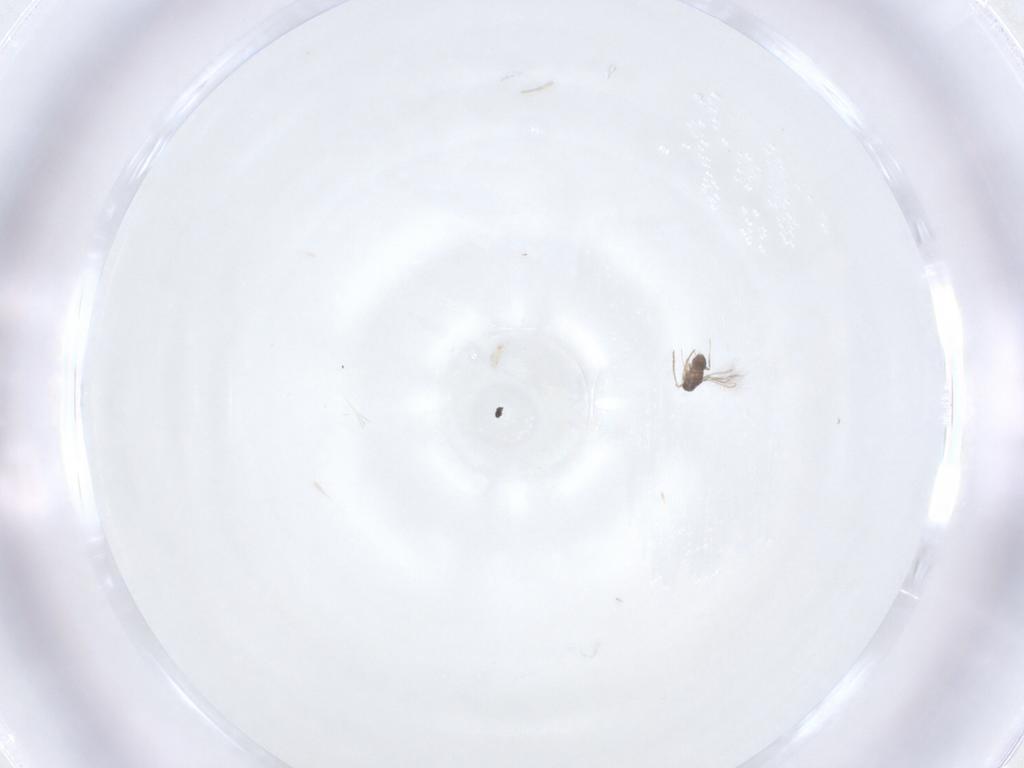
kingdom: Animalia
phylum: Arthropoda
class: Insecta
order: Hymenoptera
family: Mymaridae
